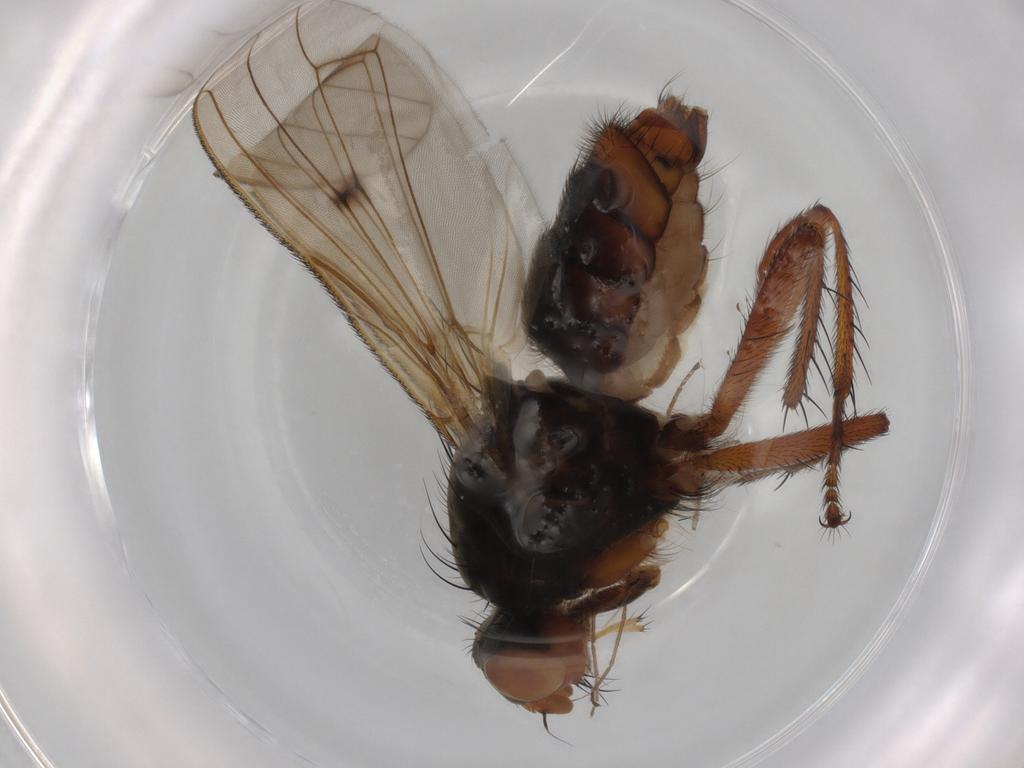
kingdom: Animalia
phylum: Arthropoda
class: Insecta
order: Diptera
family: Scathophagidae
